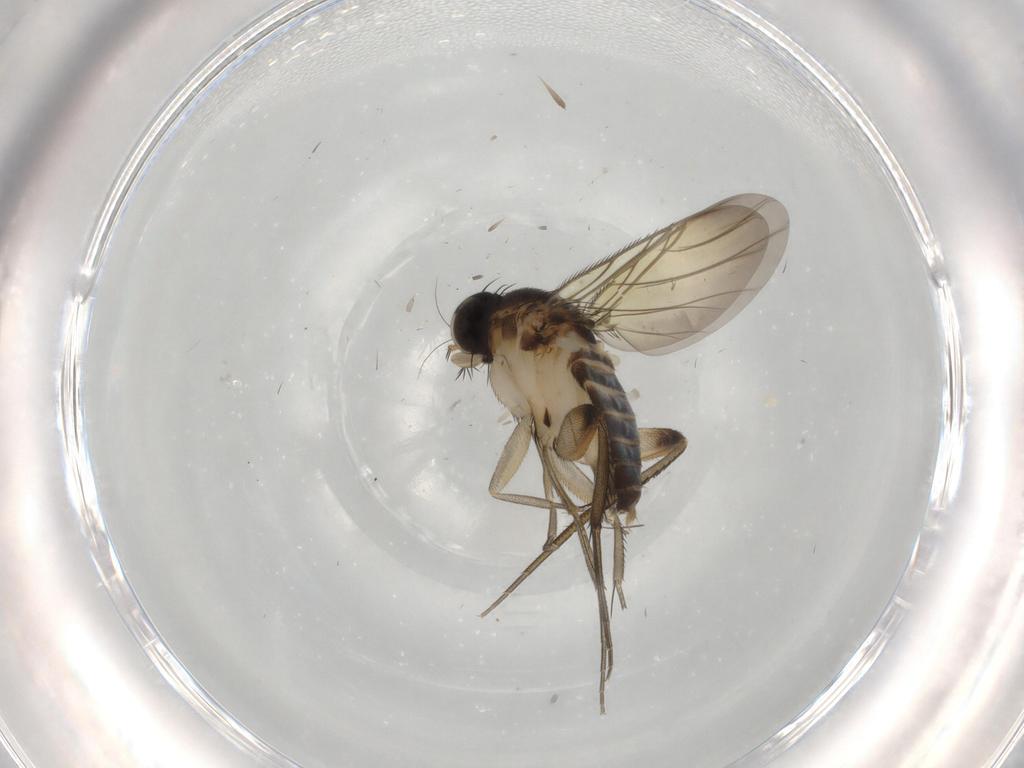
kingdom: Animalia
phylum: Arthropoda
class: Insecta
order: Diptera
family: Phoridae
